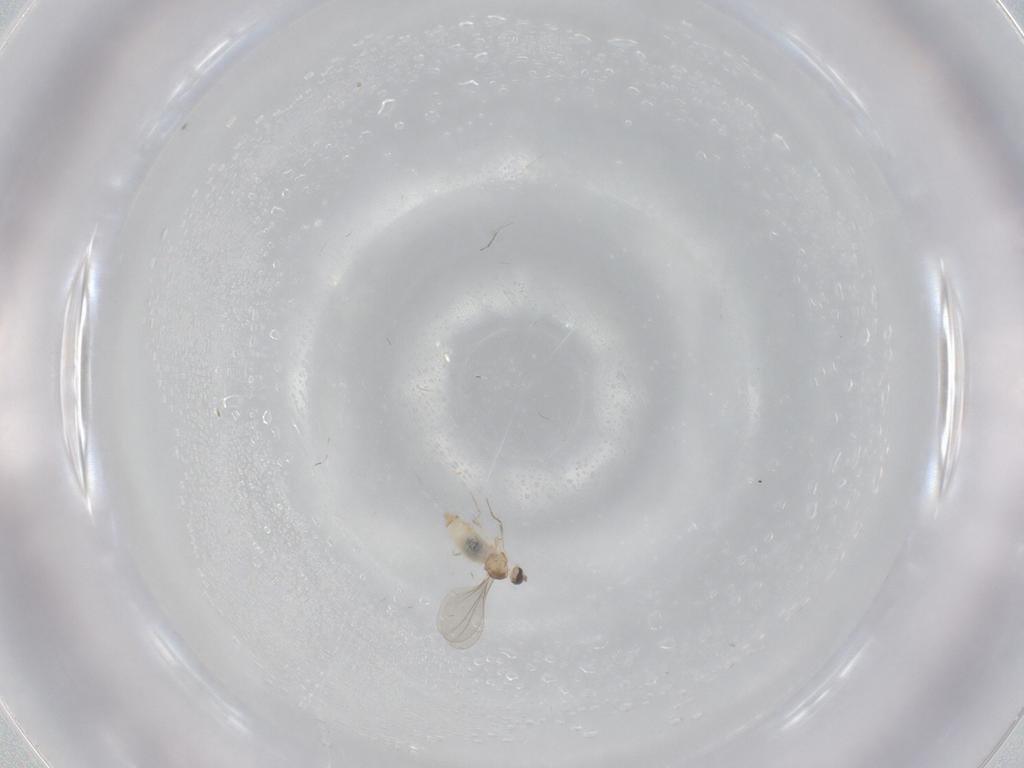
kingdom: Animalia
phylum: Arthropoda
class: Insecta
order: Diptera
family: Cecidomyiidae
